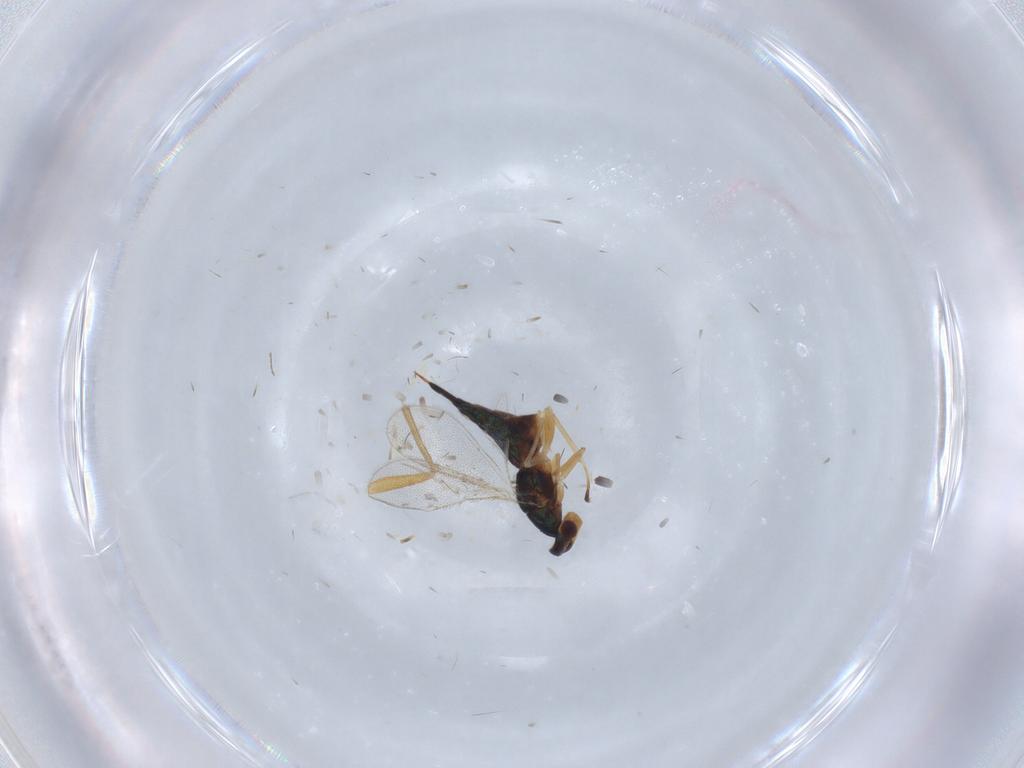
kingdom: Animalia
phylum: Arthropoda
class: Insecta
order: Hymenoptera
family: Eulophidae
